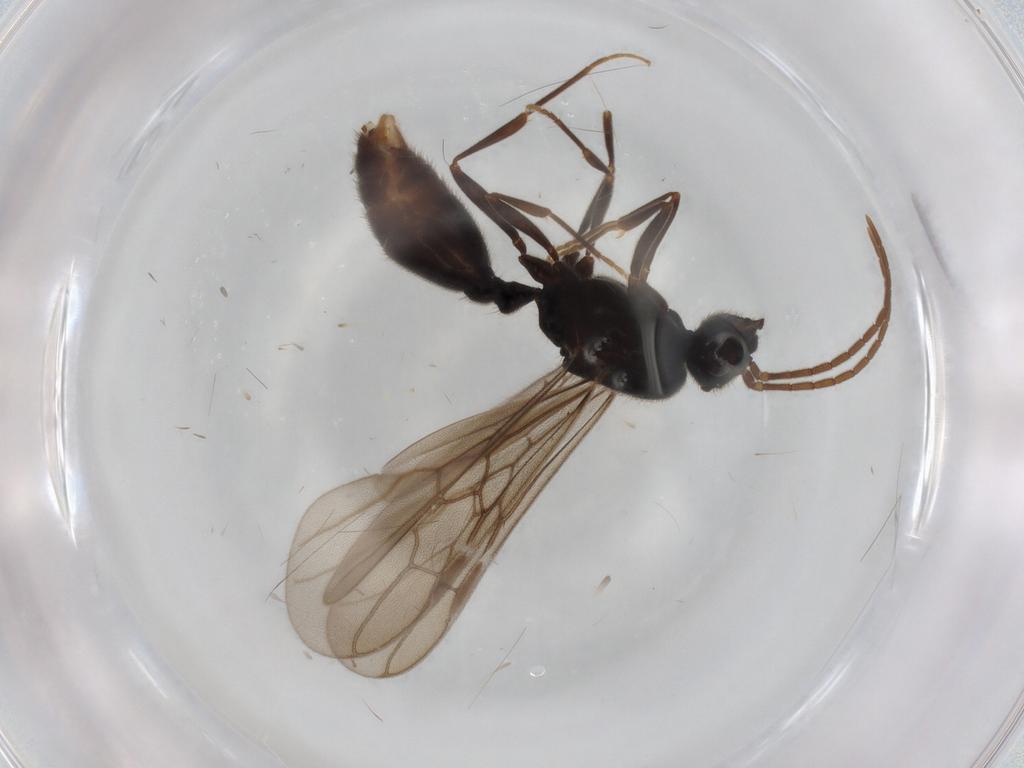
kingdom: Animalia
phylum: Arthropoda
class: Insecta
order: Hymenoptera
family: Formicidae
